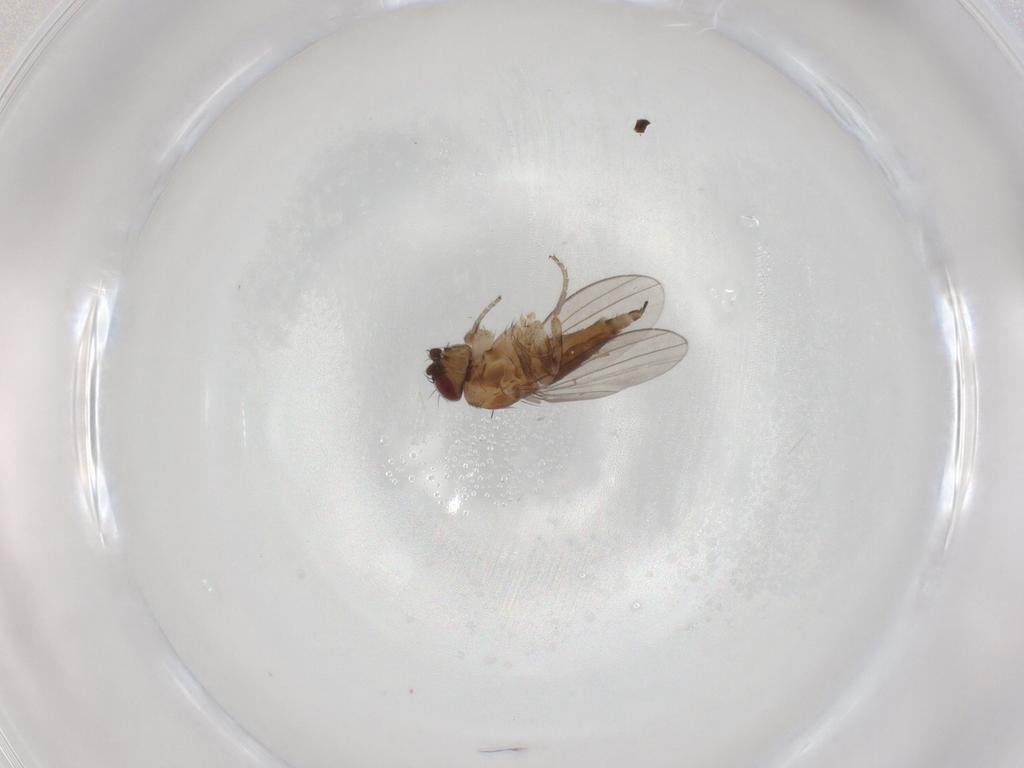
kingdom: Animalia
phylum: Arthropoda
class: Insecta
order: Diptera
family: Milichiidae
